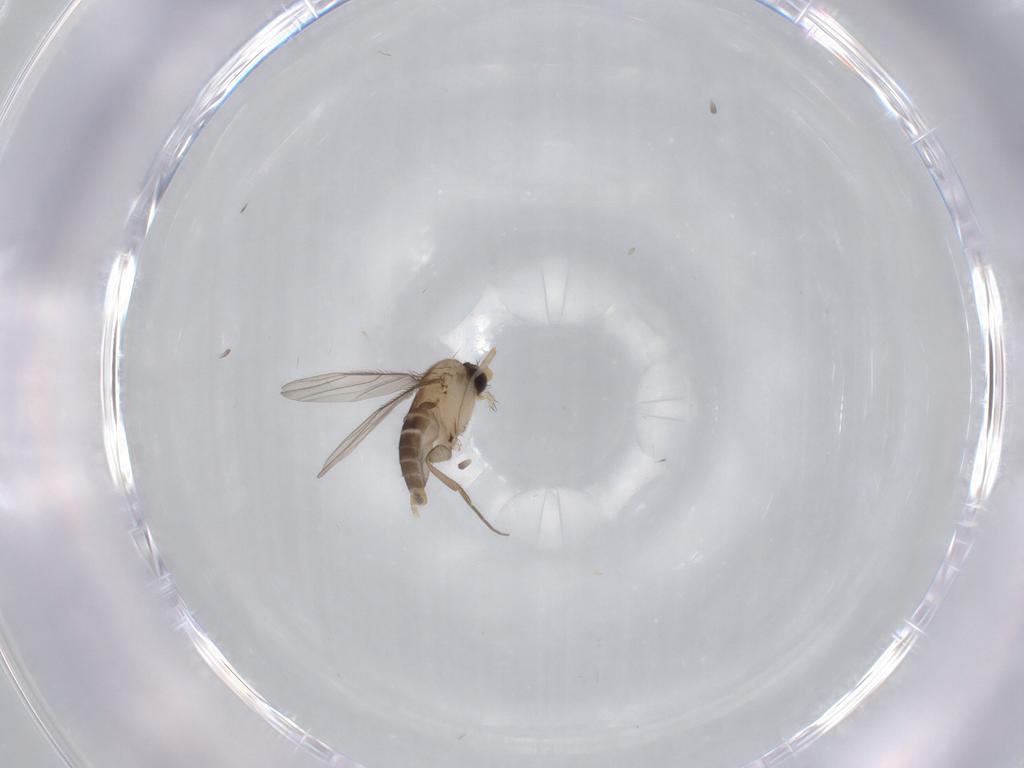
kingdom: Animalia
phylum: Arthropoda
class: Insecta
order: Diptera
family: Phoridae
